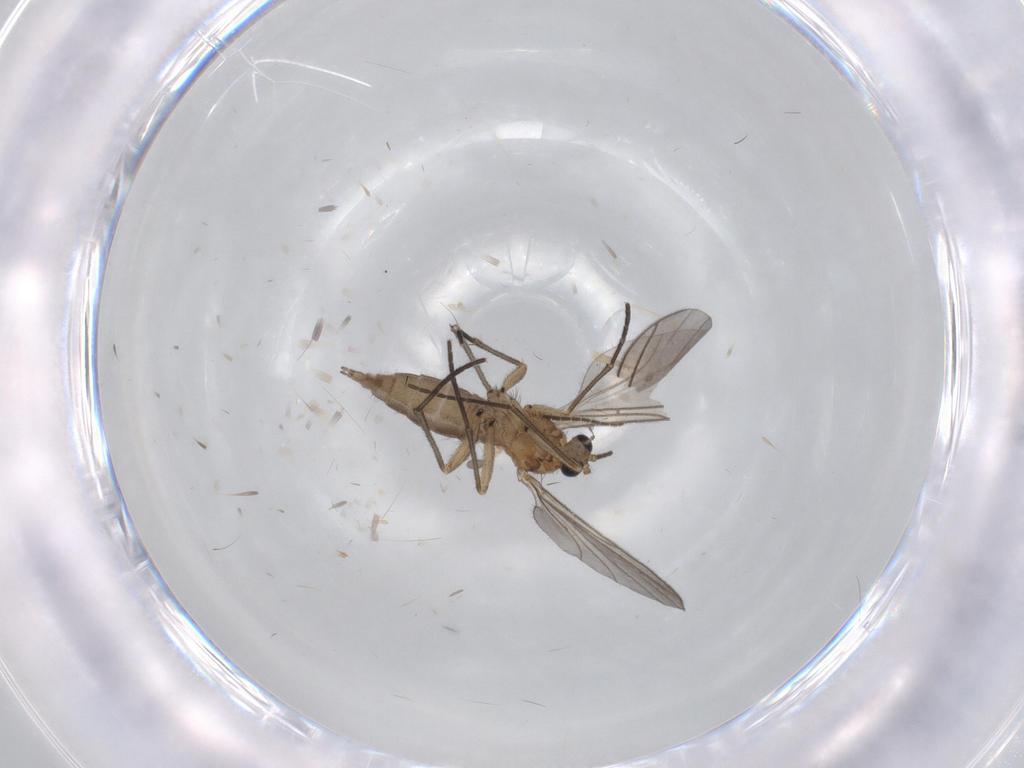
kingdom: Animalia
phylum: Arthropoda
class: Insecta
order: Diptera
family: Sciaridae
